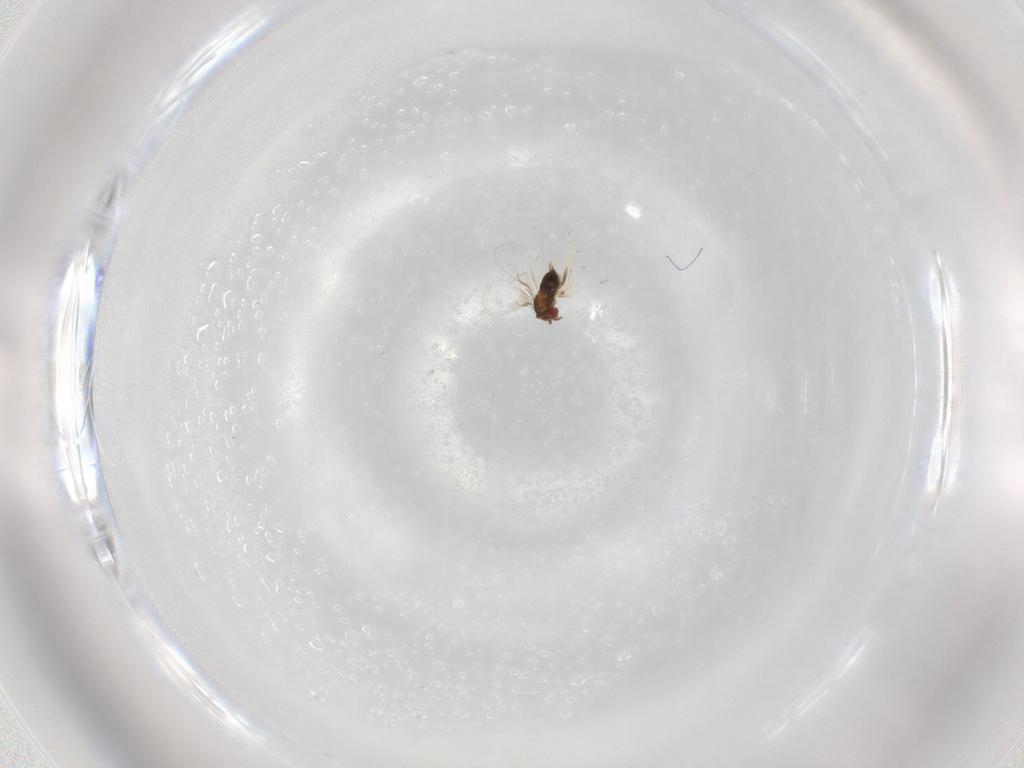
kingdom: Animalia
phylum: Arthropoda
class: Insecta
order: Hymenoptera
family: Trichogrammatidae
